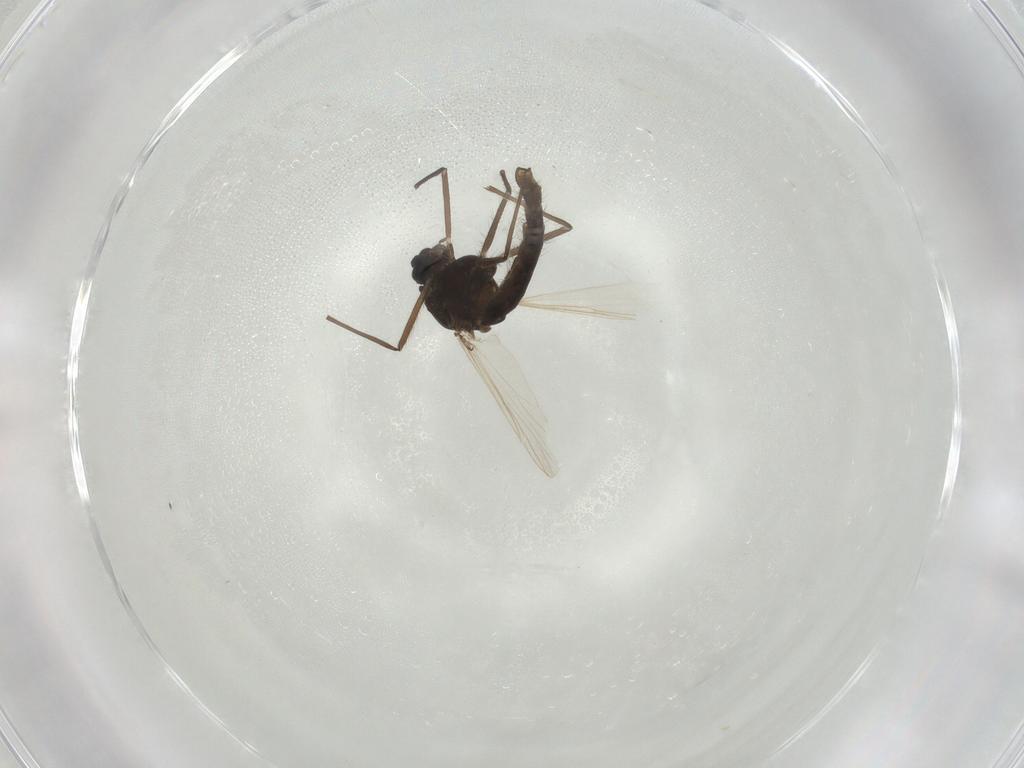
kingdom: Animalia
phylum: Arthropoda
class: Insecta
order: Diptera
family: Chironomidae
